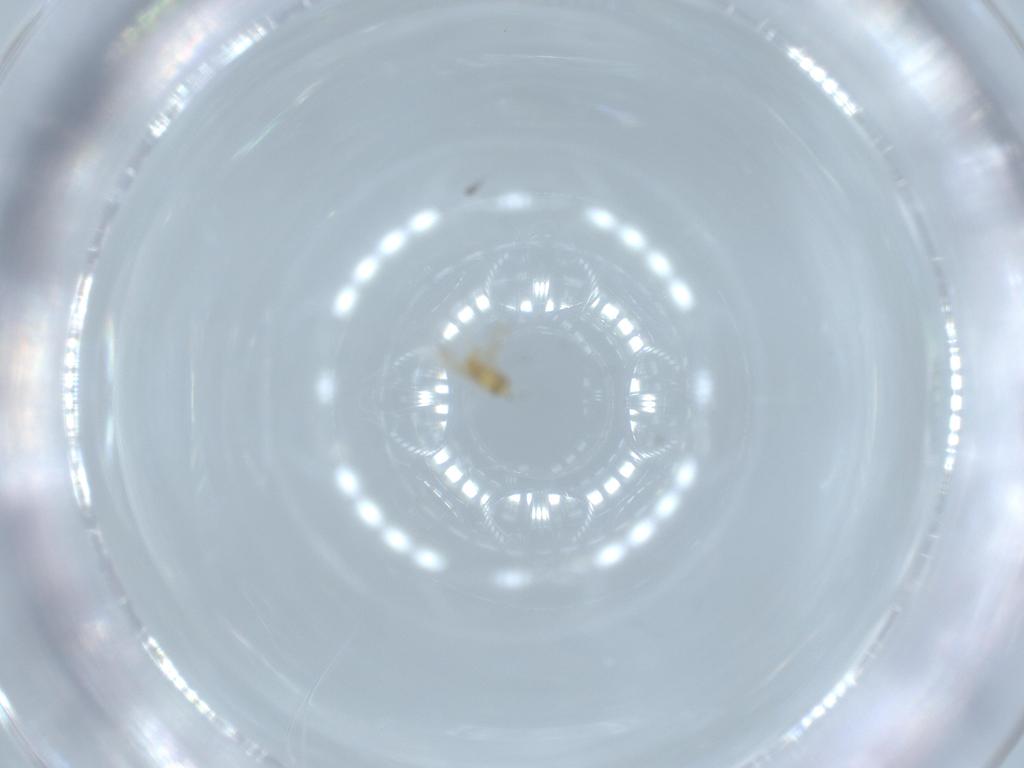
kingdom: Animalia
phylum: Arthropoda
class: Insecta
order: Hymenoptera
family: Aphelinidae
